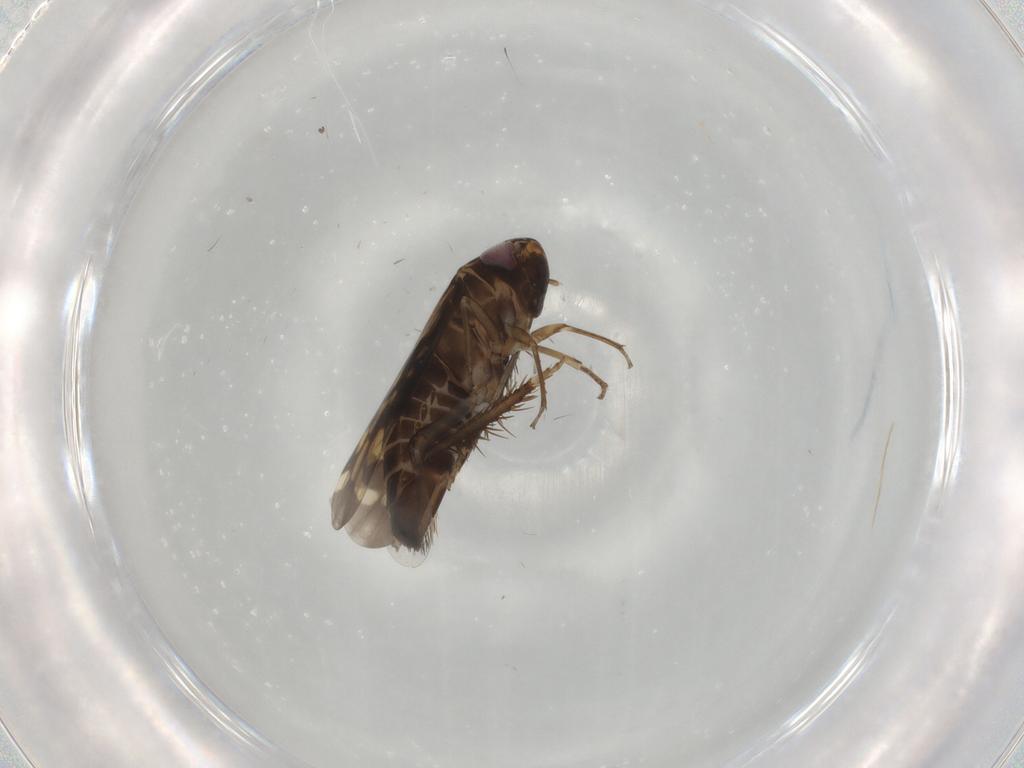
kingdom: Animalia
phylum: Arthropoda
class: Insecta
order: Hemiptera
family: Cicadellidae
